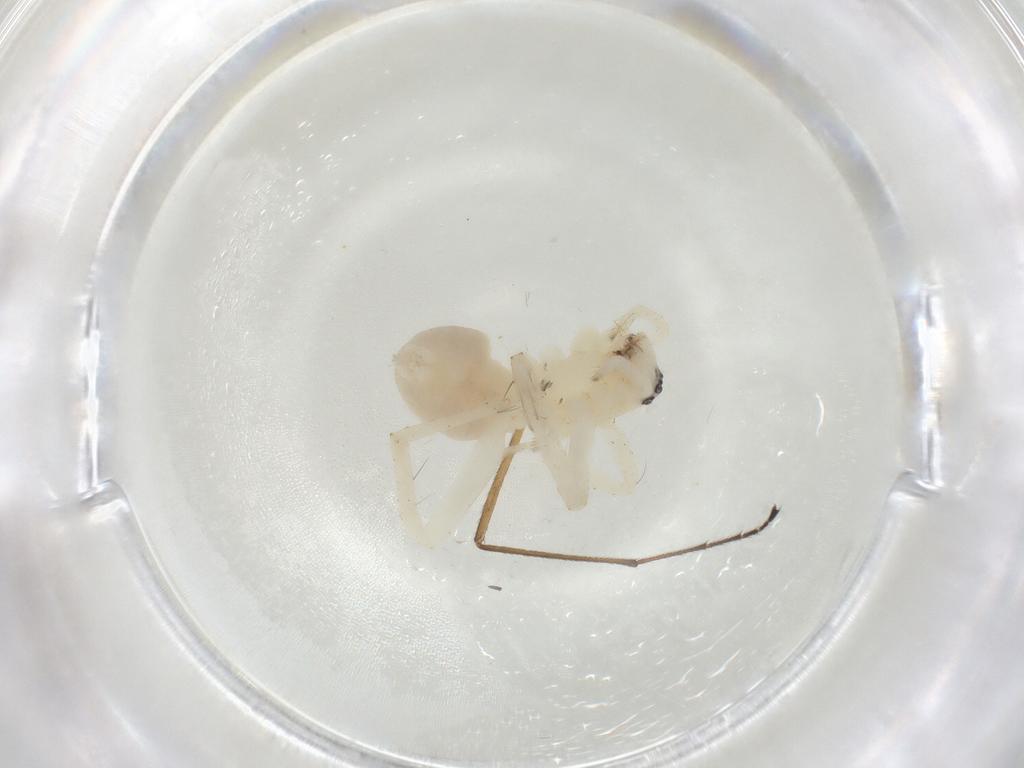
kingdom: Animalia
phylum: Arthropoda
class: Arachnida
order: Araneae
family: Anyphaenidae
